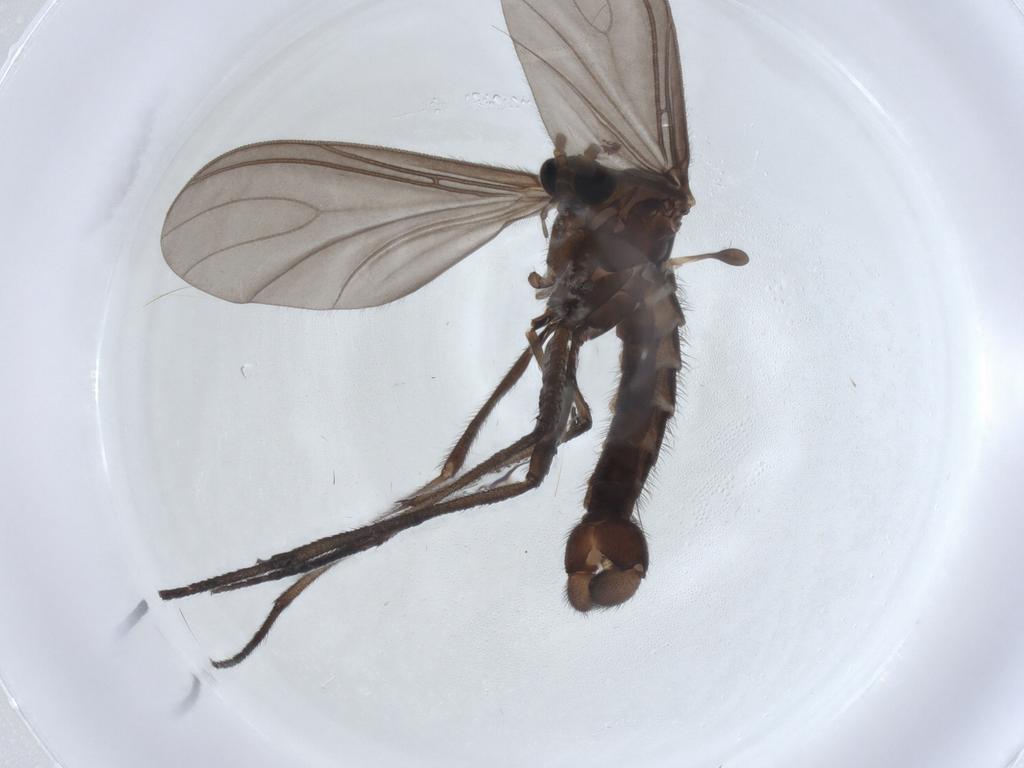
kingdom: Animalia
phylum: Arthropoda
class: Insecta
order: Diptera
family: Sciaridae
